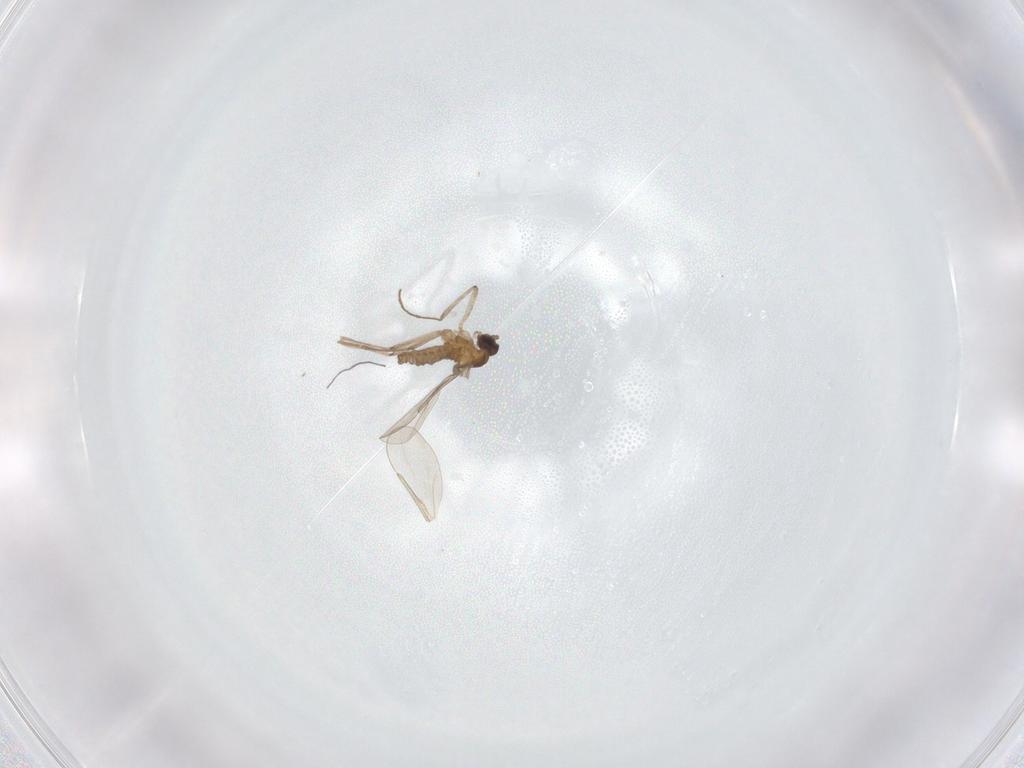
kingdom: Animalia
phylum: Arthropoda
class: Insecta
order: Diptera
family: Cecidomyiidae
